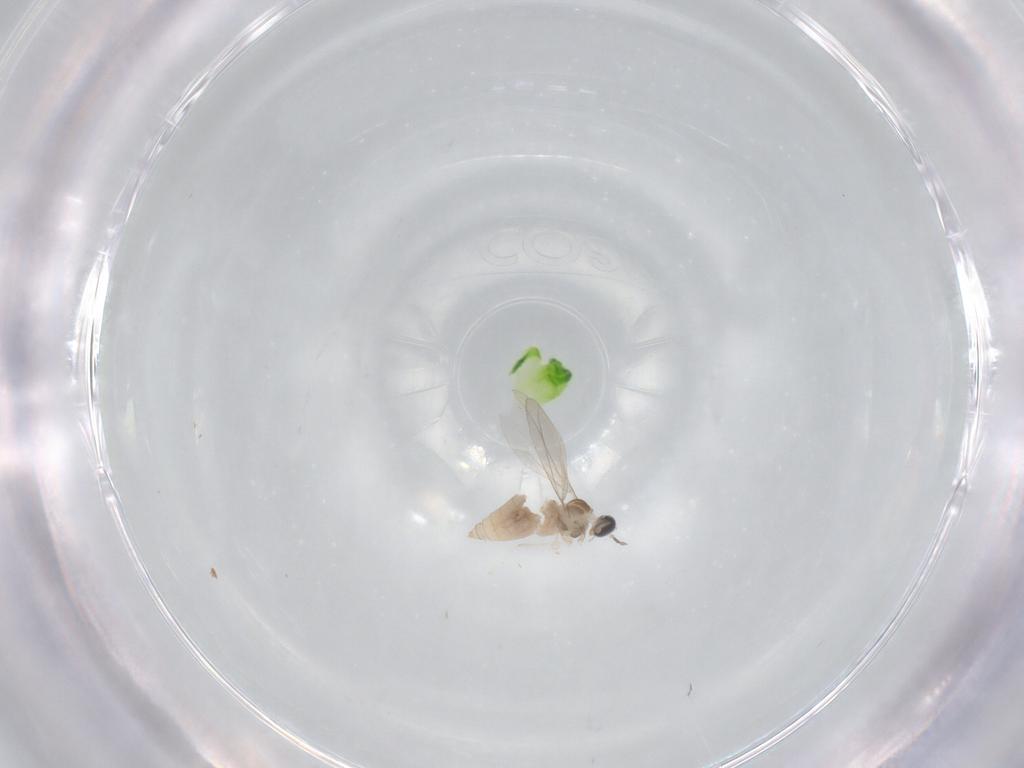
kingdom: Animalia
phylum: Arthropoda
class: Insecta
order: Diptera
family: Cecidomyiidae
